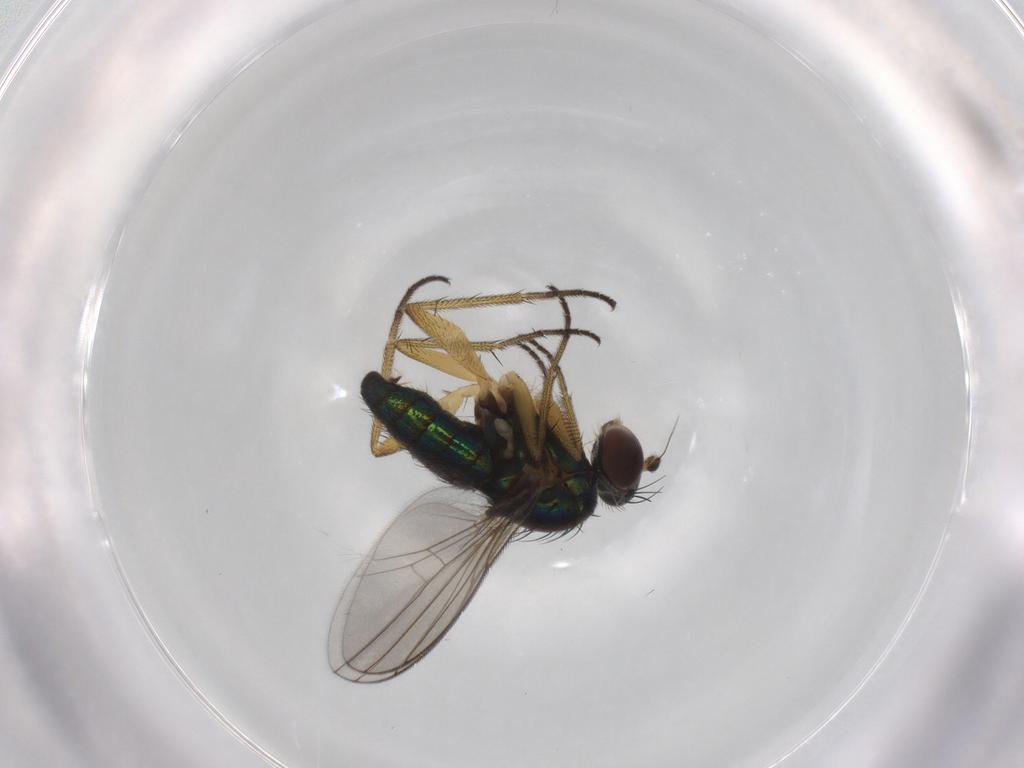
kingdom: Animalia
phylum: Arthropoda
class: Insecta
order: Diptera
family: Dolichopodidae
